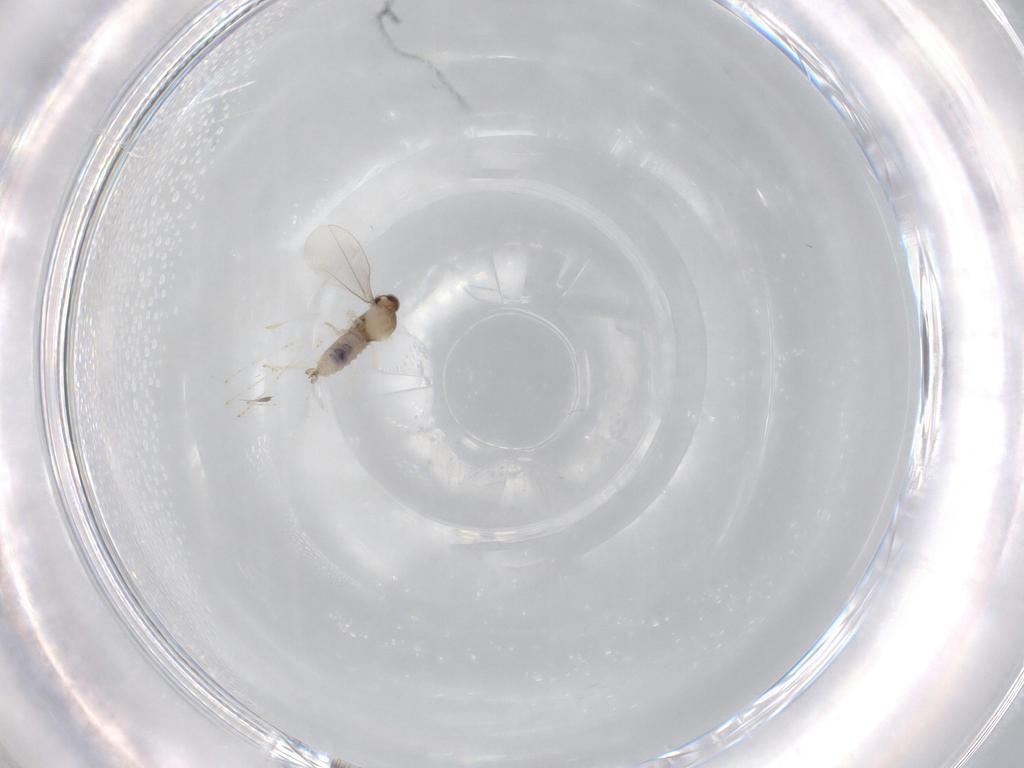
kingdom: Animalia
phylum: Arthropoda
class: Insecta
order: Diptera
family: Cecidomyiidae
